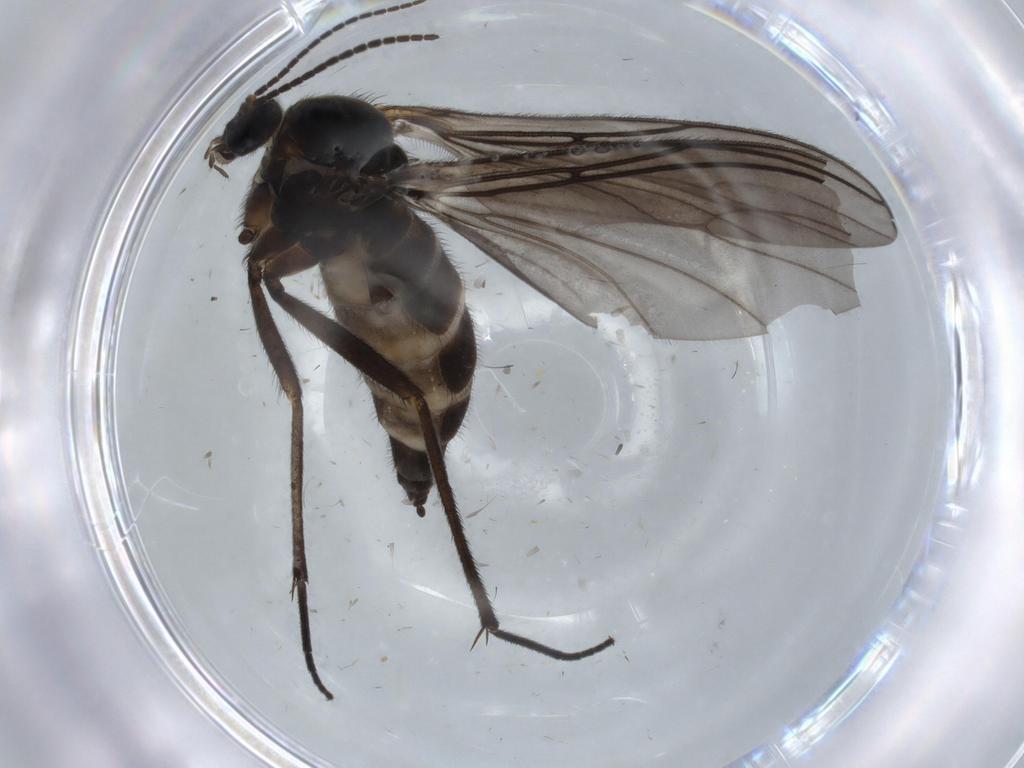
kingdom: Animalia
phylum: Arthropoda
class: Insecta
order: Diptera
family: Sciaridae
